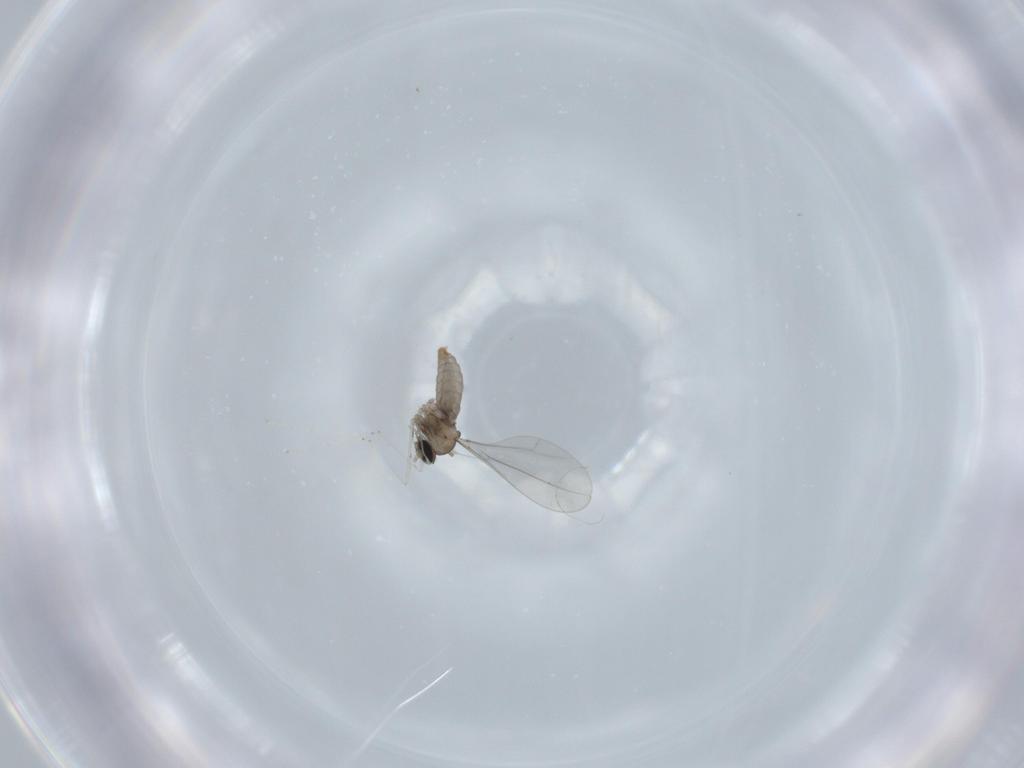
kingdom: Animalia
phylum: Arthropoda
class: Insecta
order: Diptera
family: Cecidomyiidae
